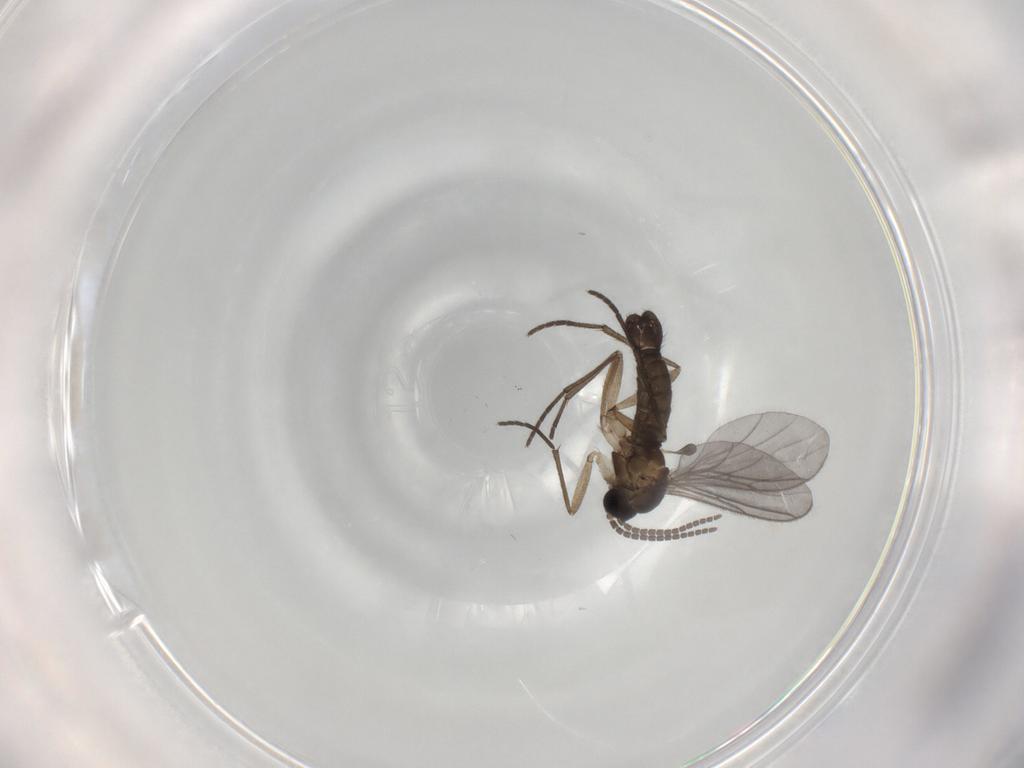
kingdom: Animalia
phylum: Arthropoda
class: Insecta
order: Diptera
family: Sciaridae
